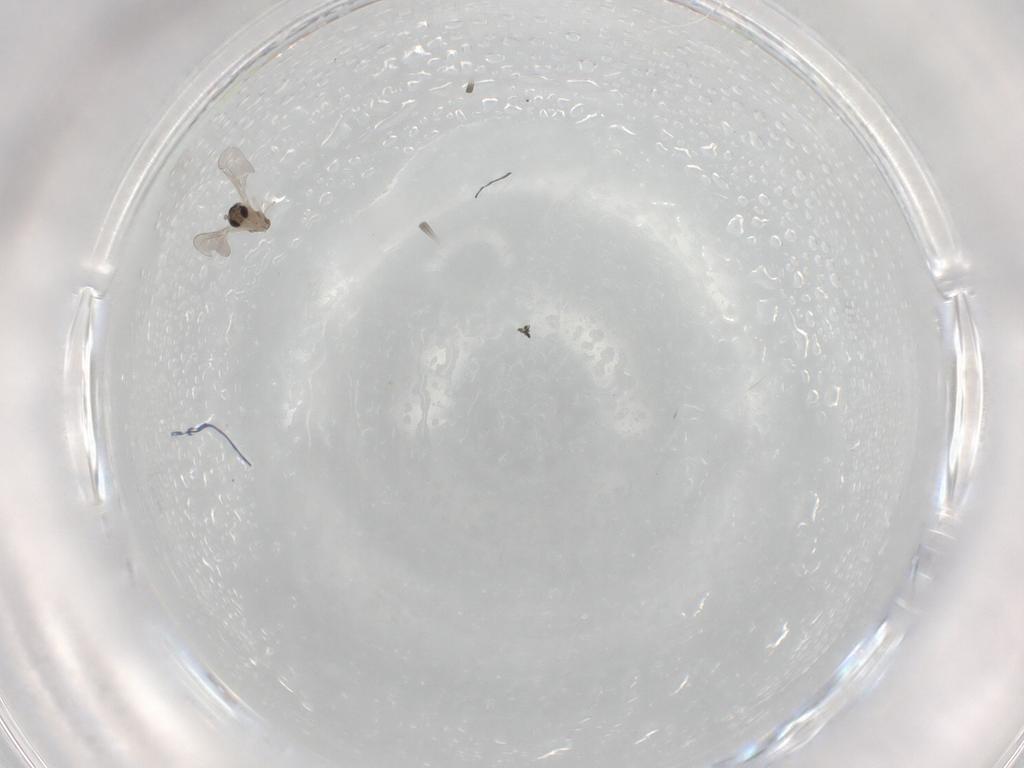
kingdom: Animalia
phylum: Arthropoda
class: Insecta
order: Diptera
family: Cecidomyiidae
